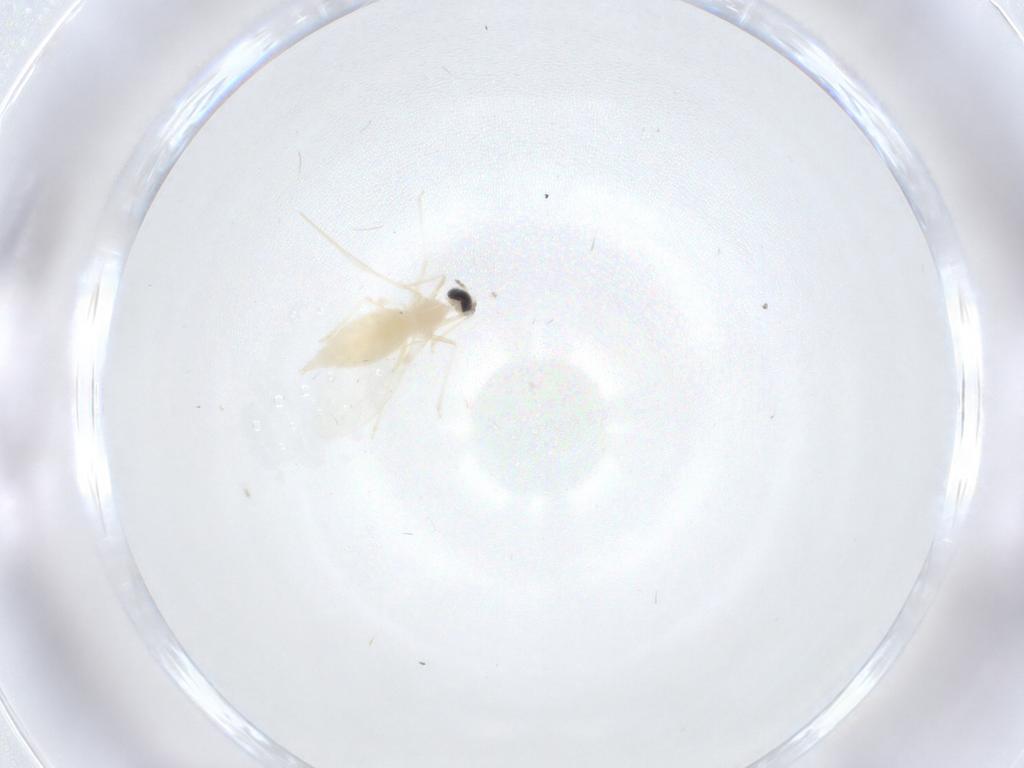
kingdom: Animalia
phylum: Arthropoda
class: Insecta
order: Diptera
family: Cecidomyiidae
